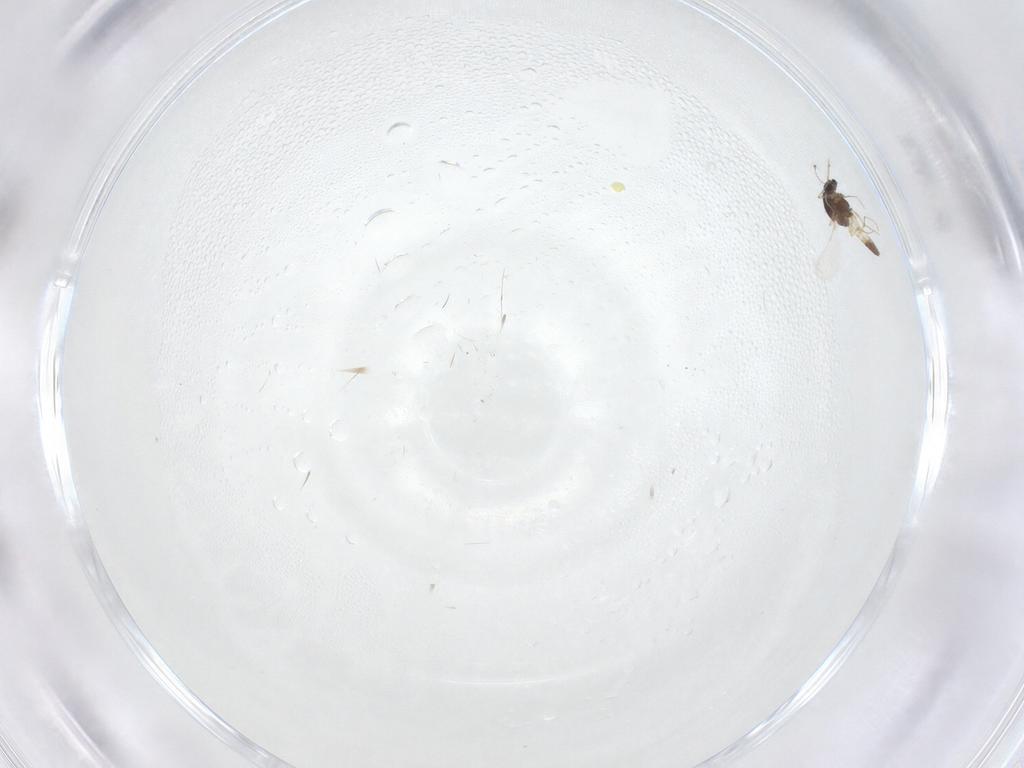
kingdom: Animalia
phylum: Arthropoda
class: Insecta
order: Diptera
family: Chironomidae
